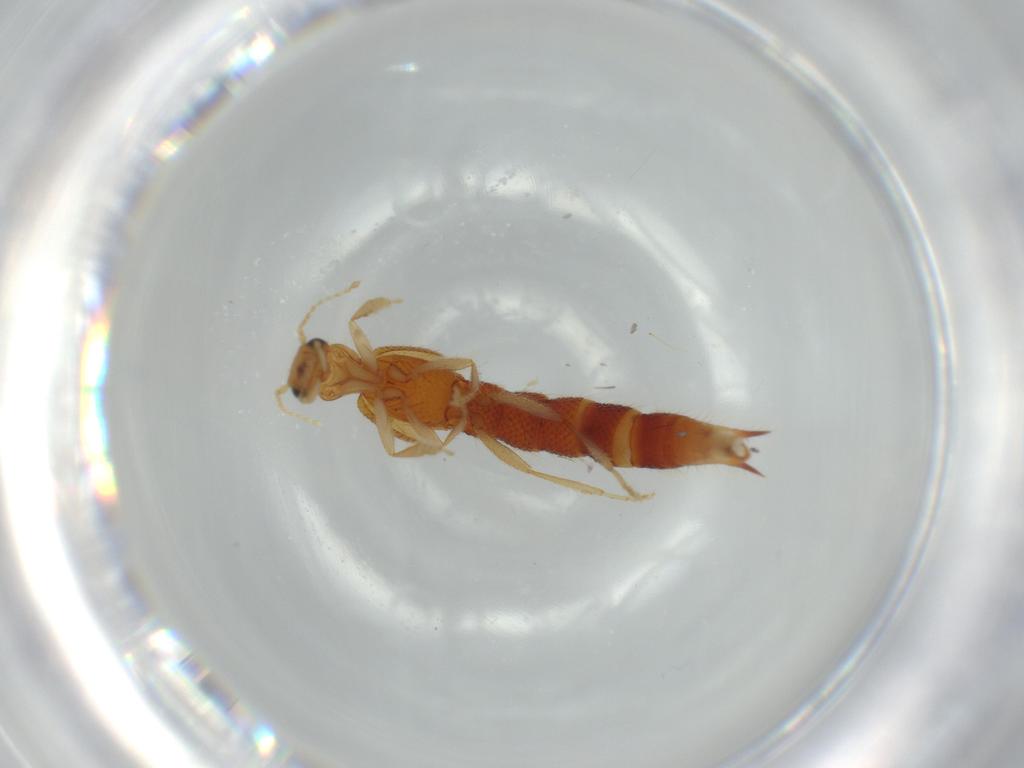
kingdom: Animalia
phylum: Arthropoda
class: Insecta
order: Coleoptera
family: Staphylinidae
